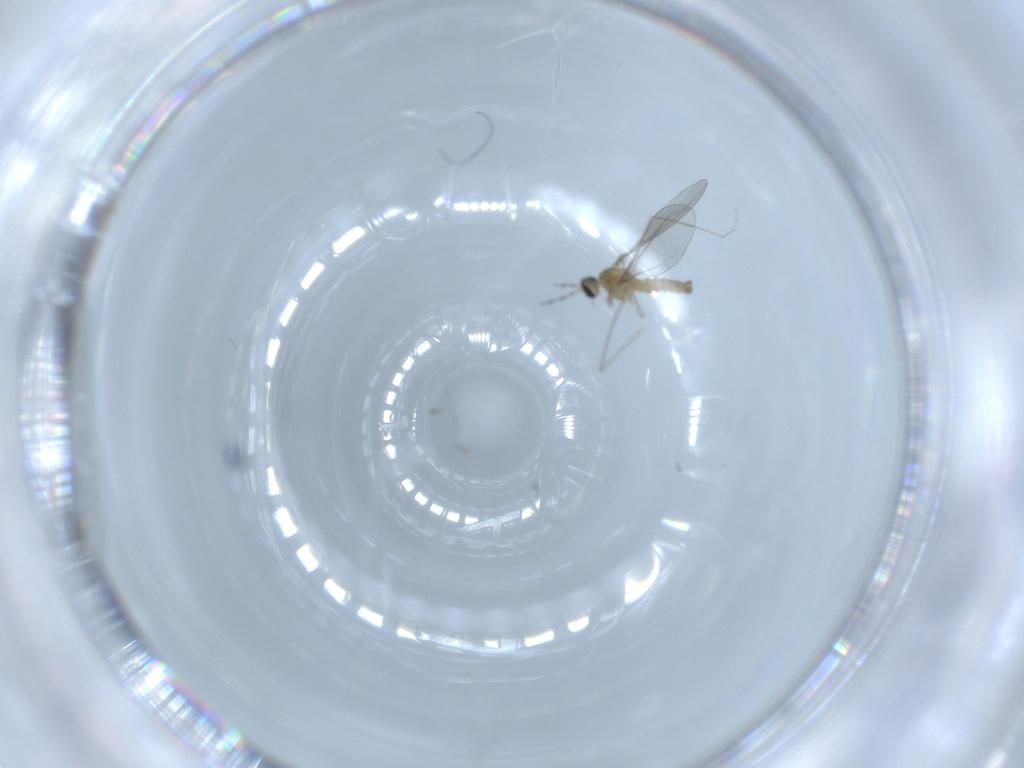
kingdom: Animalia
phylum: Arthropoda
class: Insecta
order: Diptera
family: Cecidomyiidae
